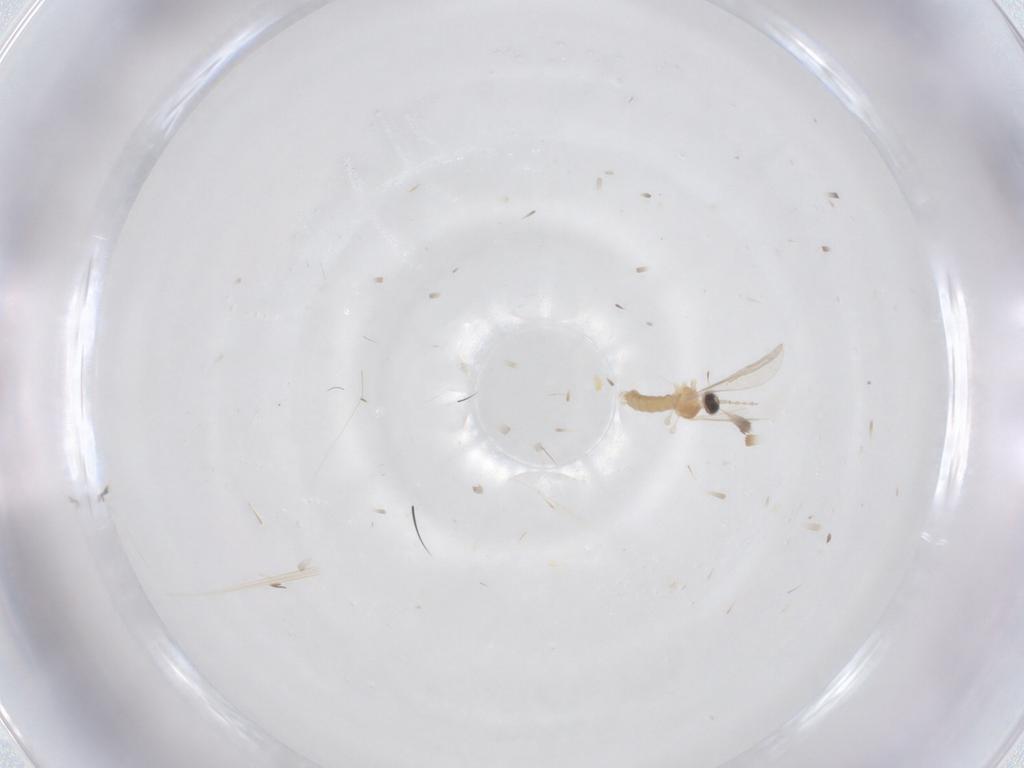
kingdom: Animalia
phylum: Arthropoda
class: Insecta
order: Diptera
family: Cecidomyiidae
